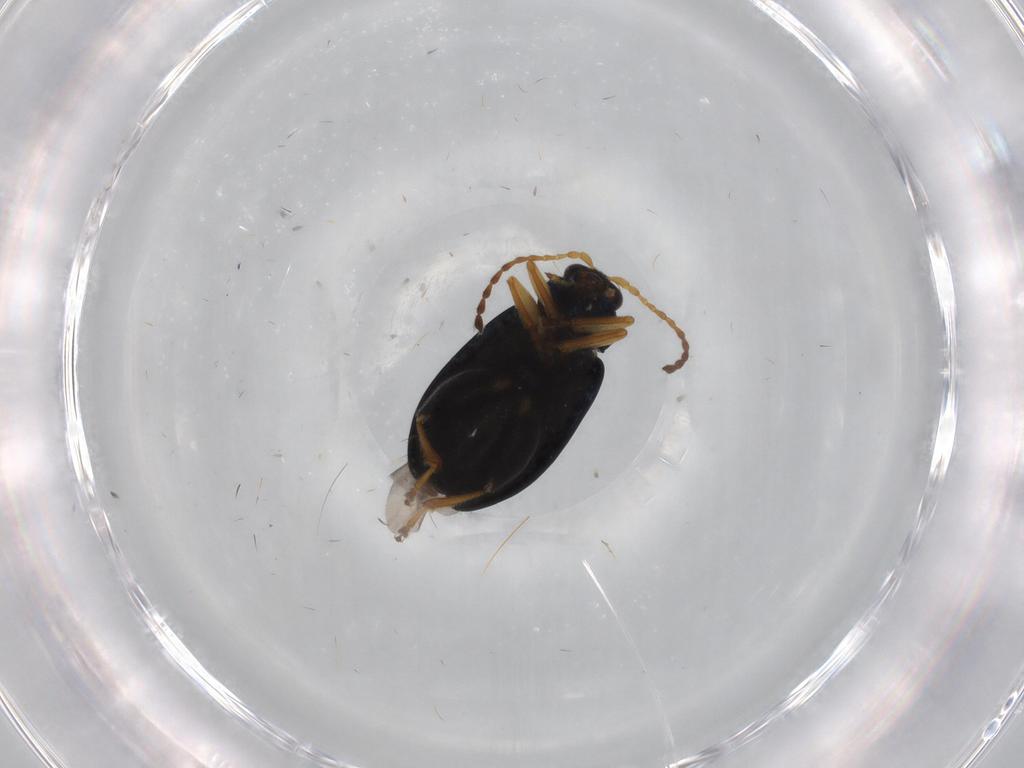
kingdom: Animalia
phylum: Arthropoda
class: Insecta
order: Coleoptera
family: Chrysomelidae
